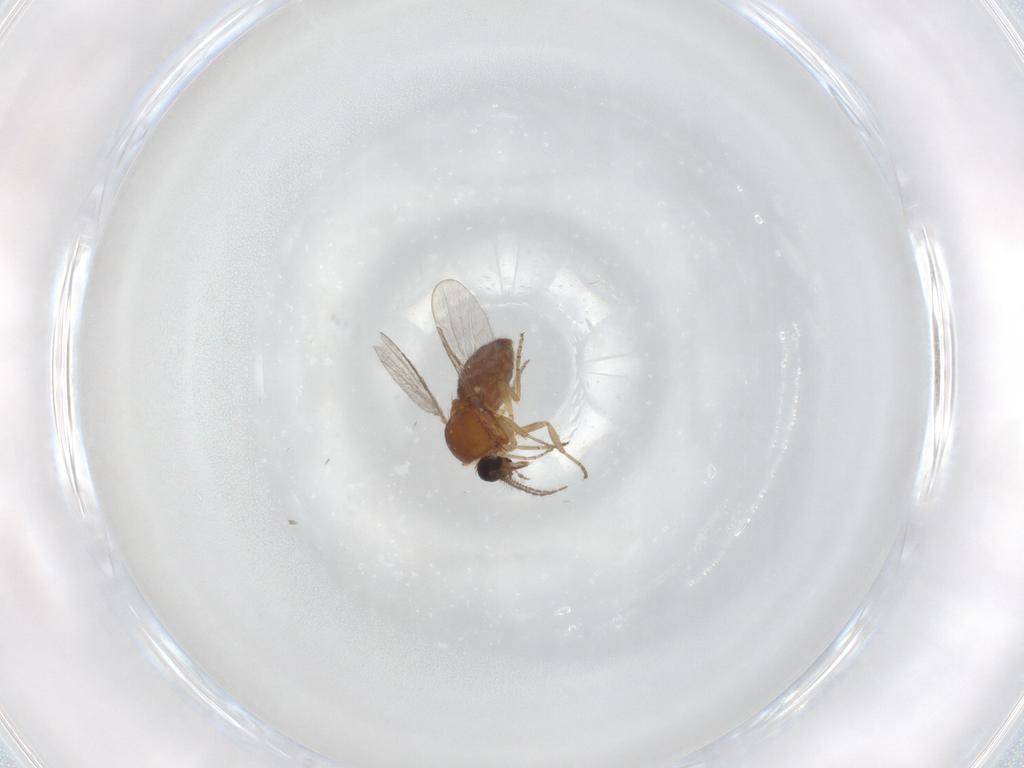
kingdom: Animalia
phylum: Arthropoda
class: Insecta
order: Diptera
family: Ceratopogonidae
